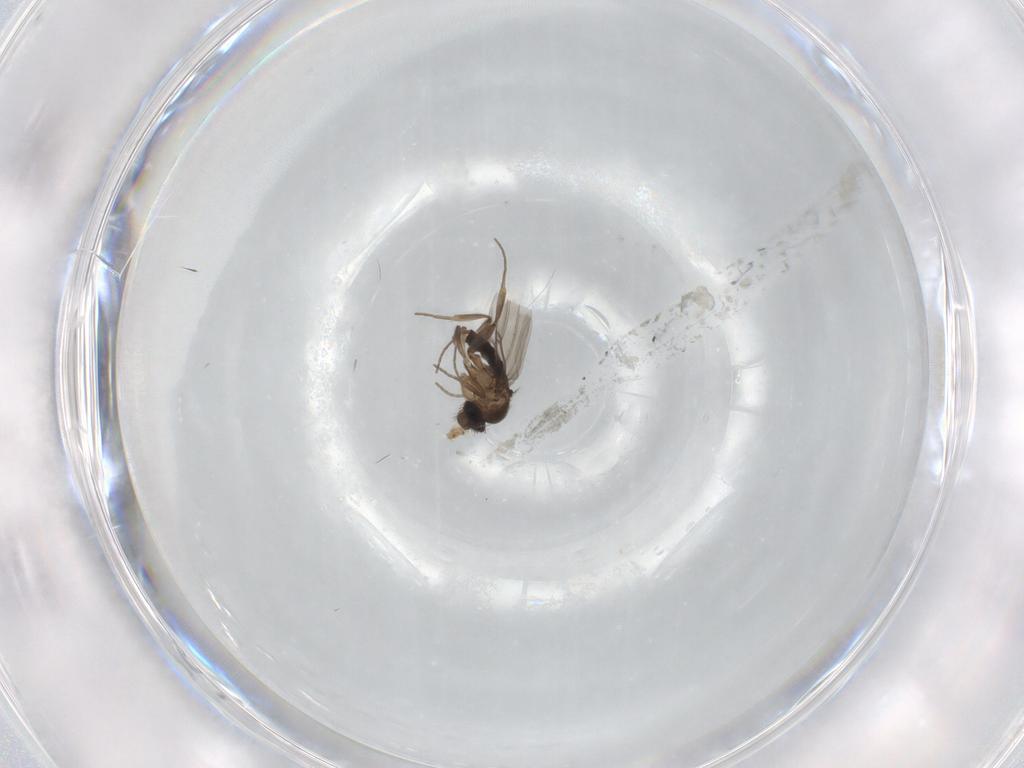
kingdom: Animalia
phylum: Arthropoda
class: Insecta
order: Diptera
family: Phoridae
